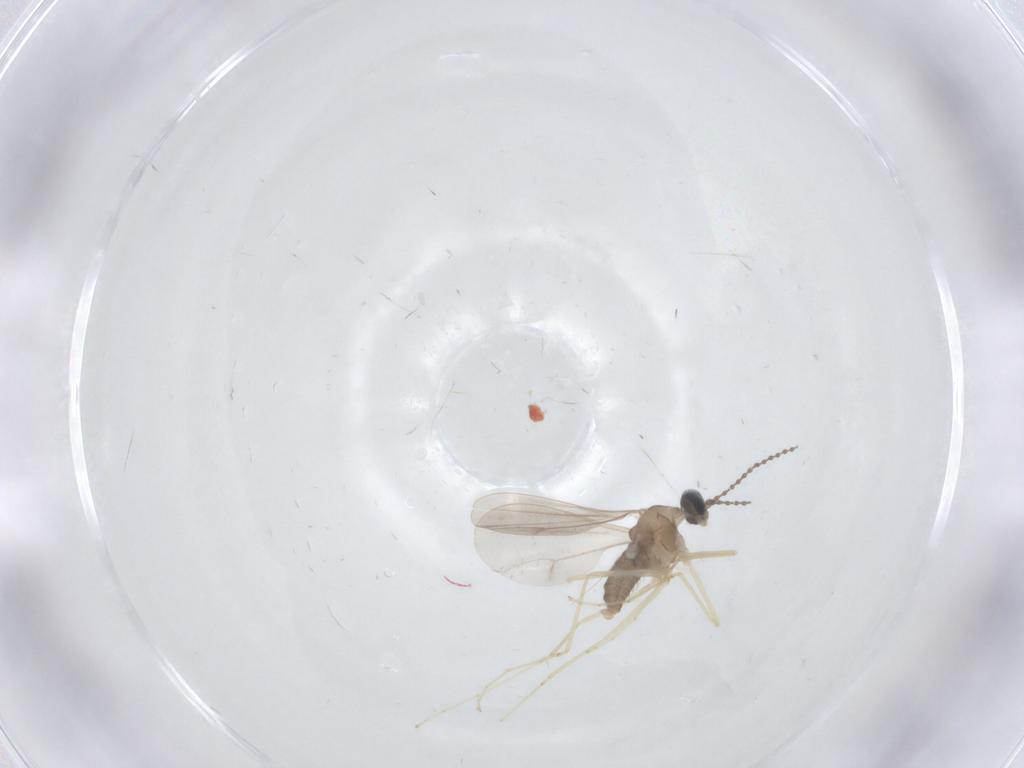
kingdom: Animalia
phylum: Arthropoda
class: Insecta
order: Diptera
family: Cecidomyiidae
